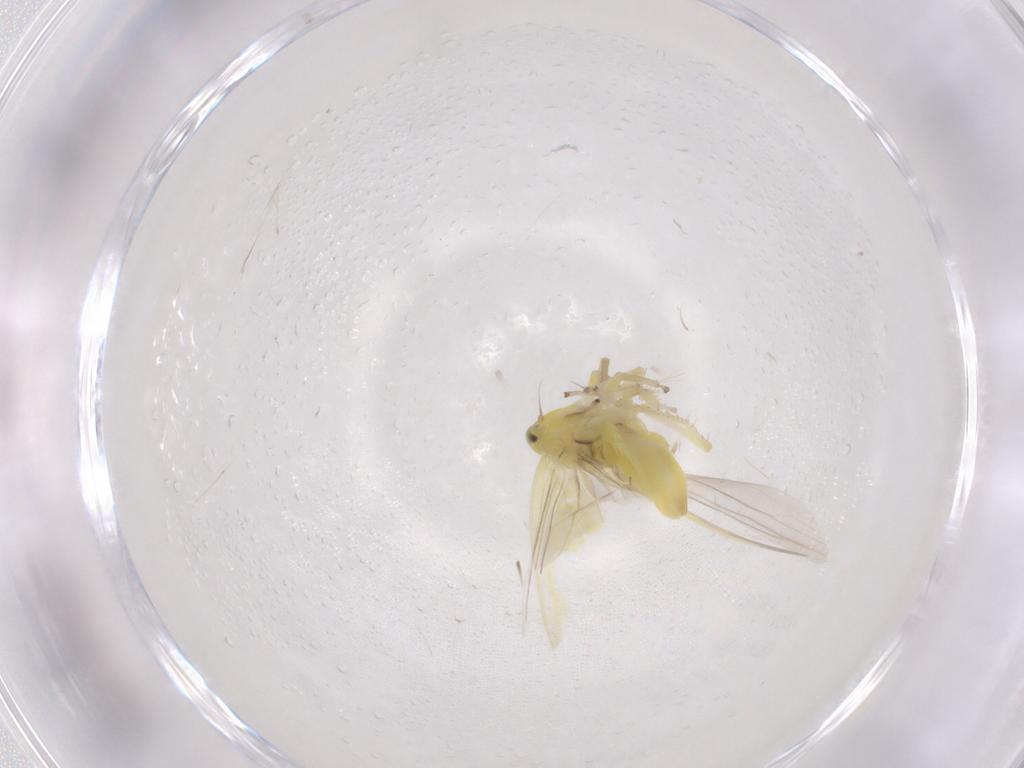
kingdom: Animalia
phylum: Arthropoda
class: Insecta
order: Hemiptera
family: Cicadellidae
